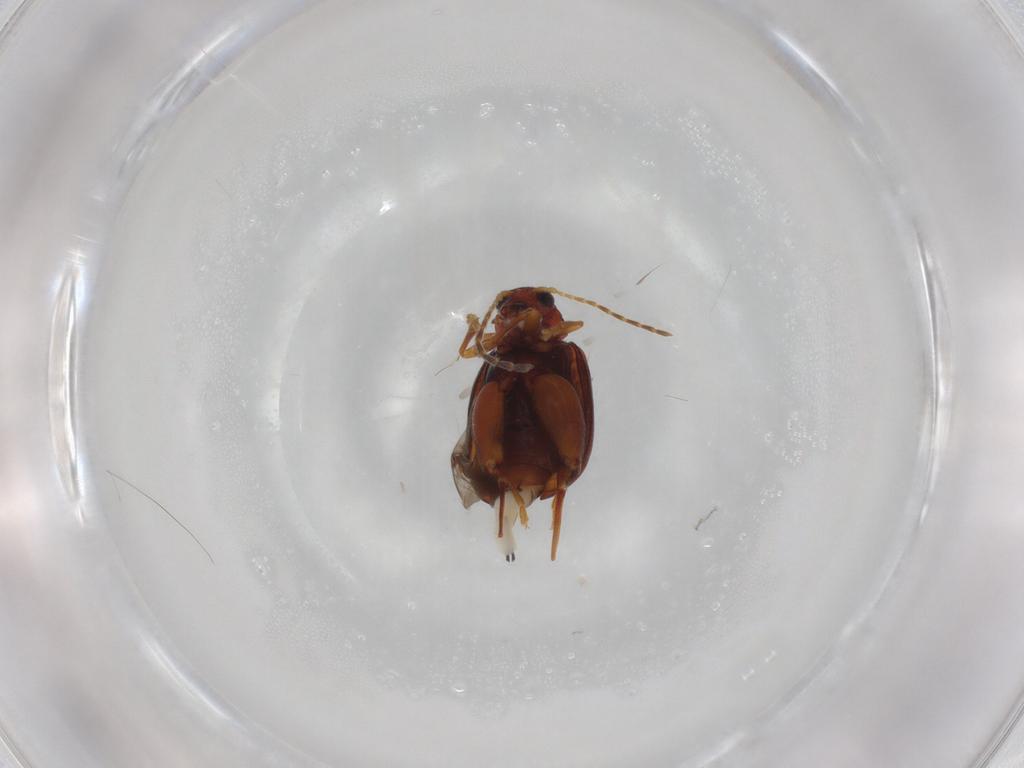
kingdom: Animalia
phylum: Arthropoda
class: Insecta
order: Coleoptera
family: Chrysomelidae
